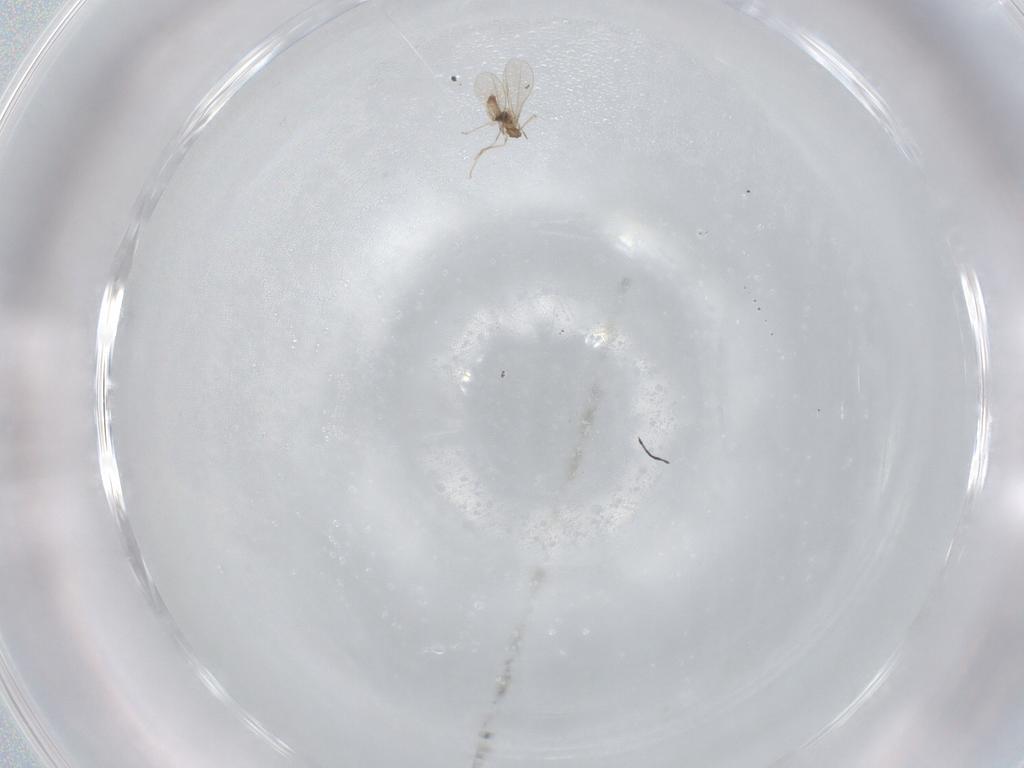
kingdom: Animalia
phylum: Arthropoda
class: Insecta
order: Diptera
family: Cecidomyiidae
